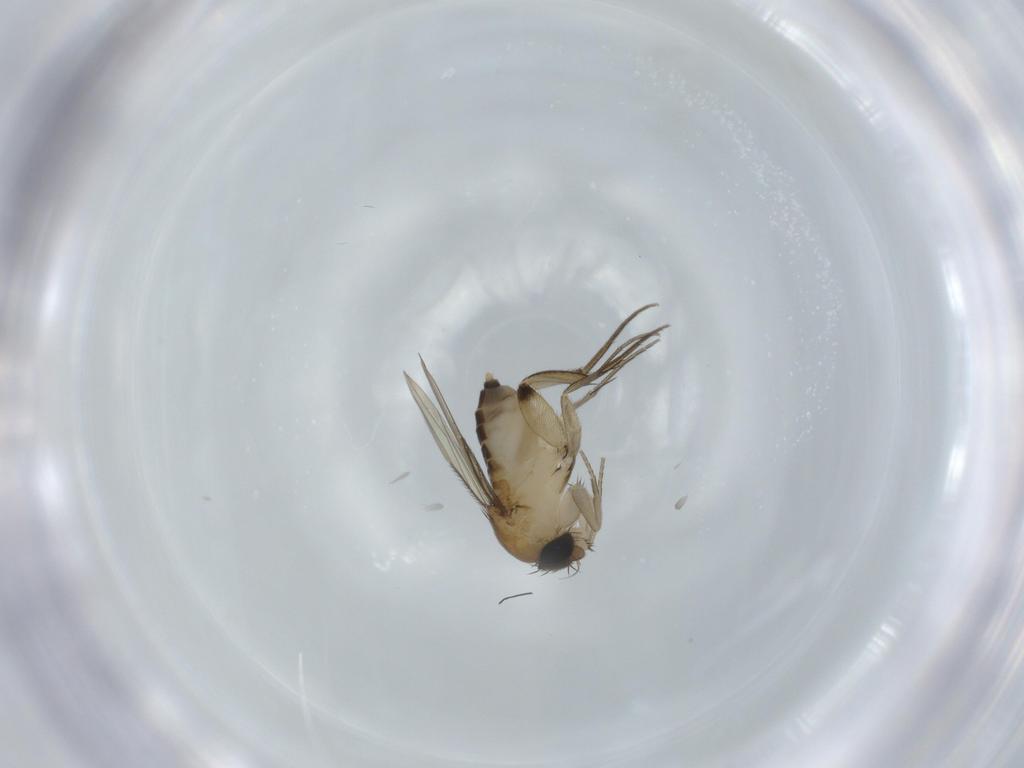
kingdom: Animalia
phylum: Arthropoda
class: Insecta
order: Diptera
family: Phoridae
